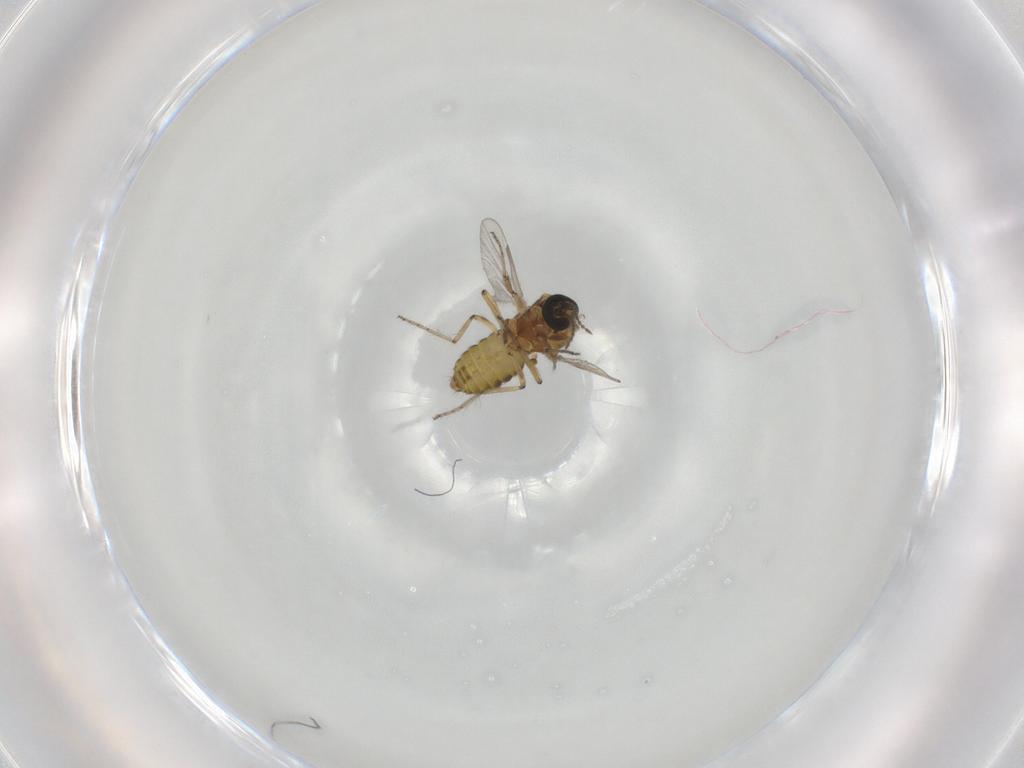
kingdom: Animalia
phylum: Arthropoda
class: Insecta
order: Diptera
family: Ceratopogonidae
